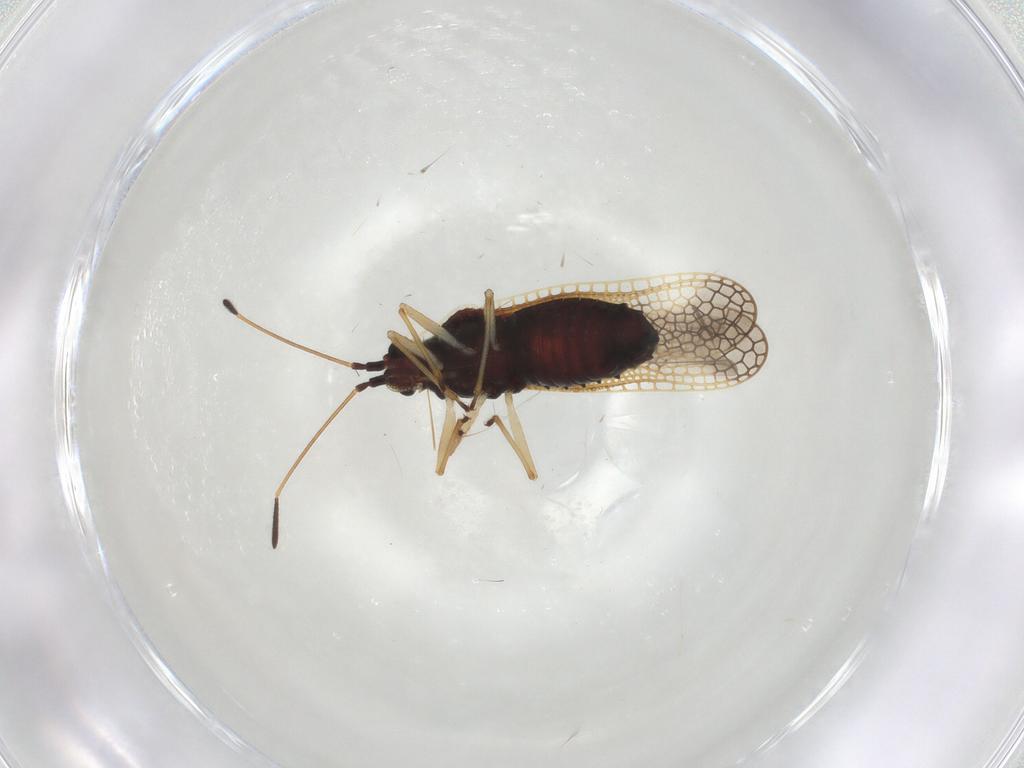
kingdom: Animalia
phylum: Arthropoda
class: Insecta
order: Hemiptera
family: Tingidae
